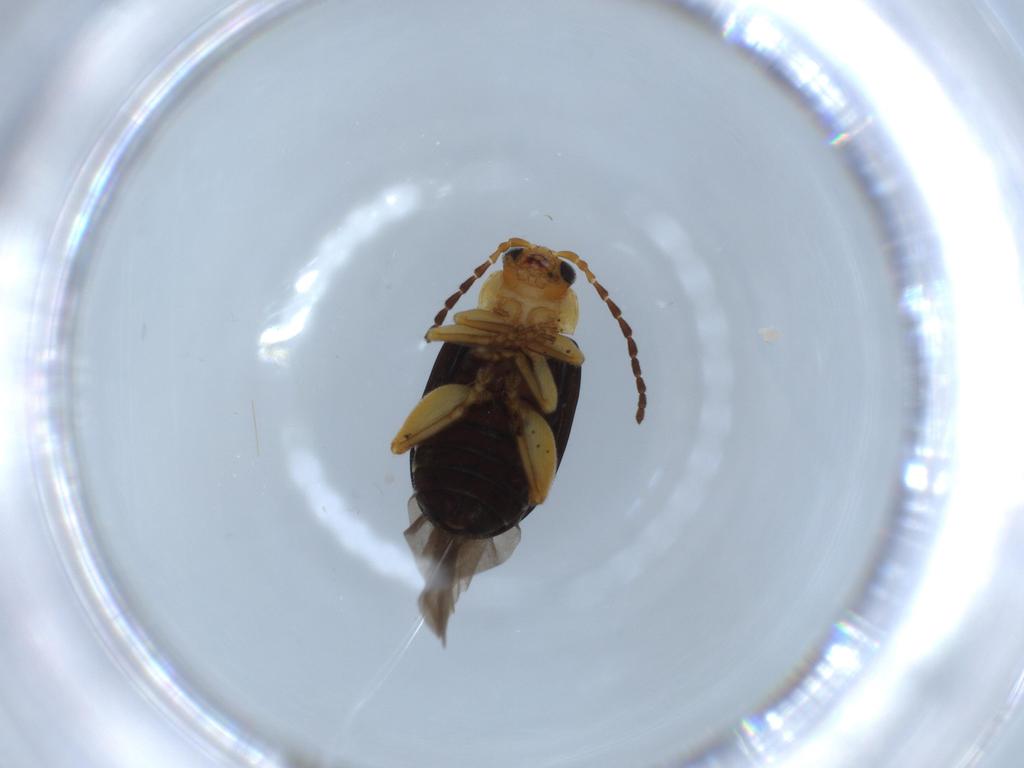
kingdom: Animalia
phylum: Arthropoda
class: Insecta
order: Coleoptera
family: Chrysomelidae
